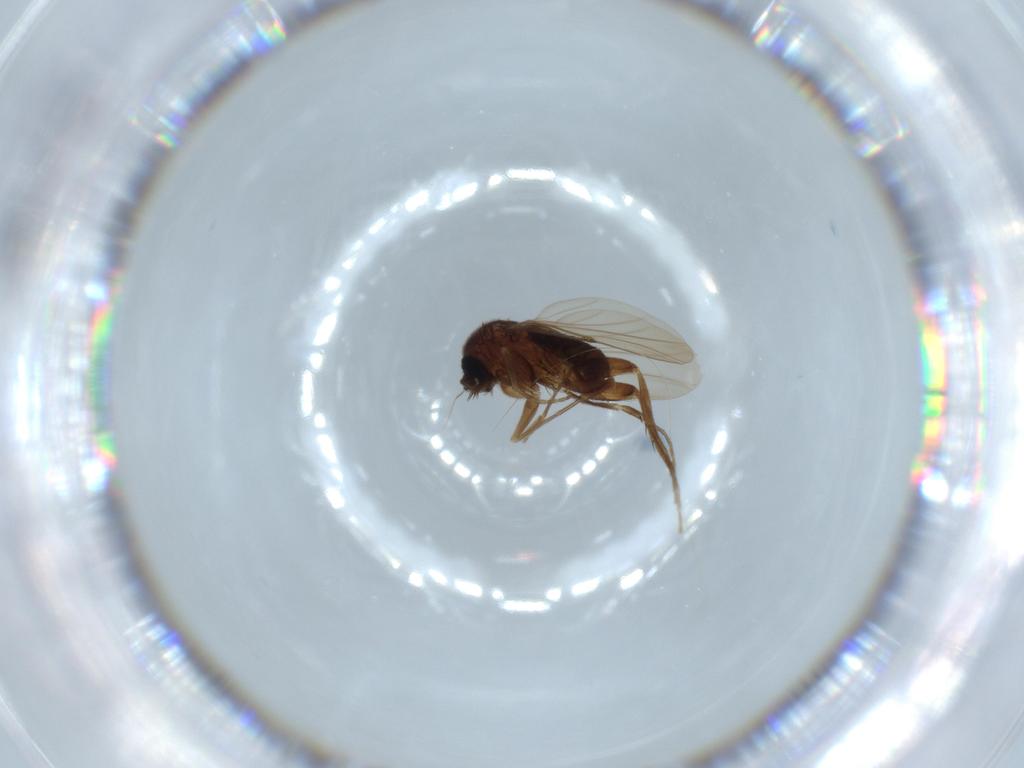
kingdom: Animalia
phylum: Arthropoda
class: Insecta
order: Diptera
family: Phoridae
